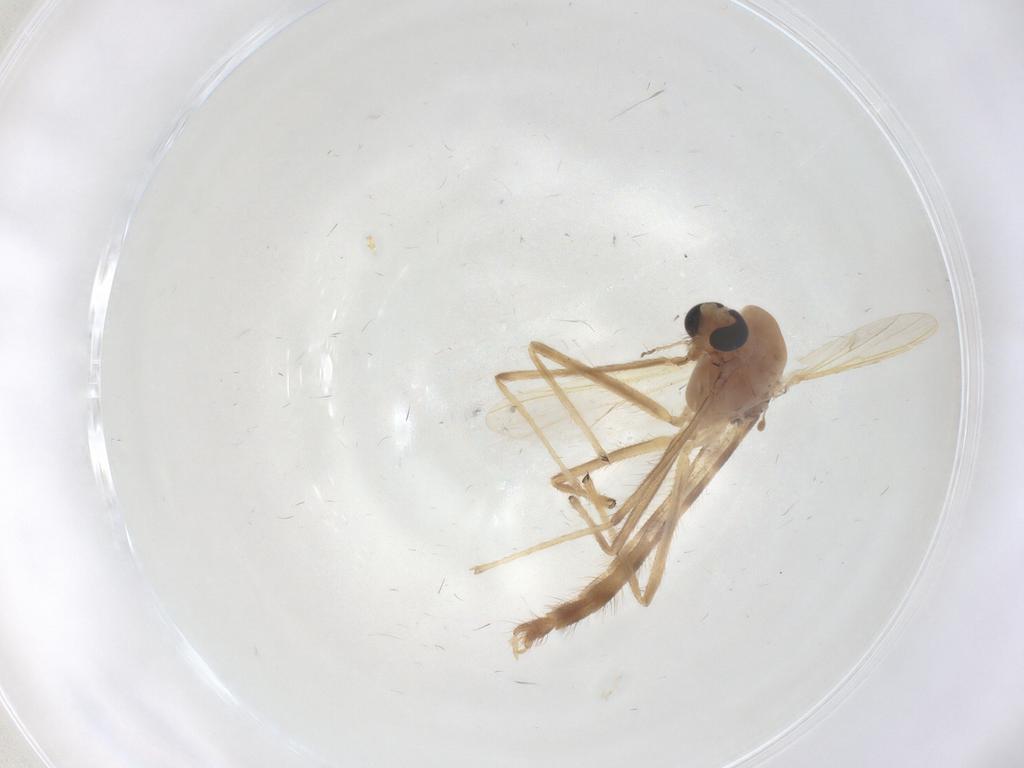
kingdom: Animalia
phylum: Arthropoda
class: Insecta
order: Diptera
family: Chironomidae
